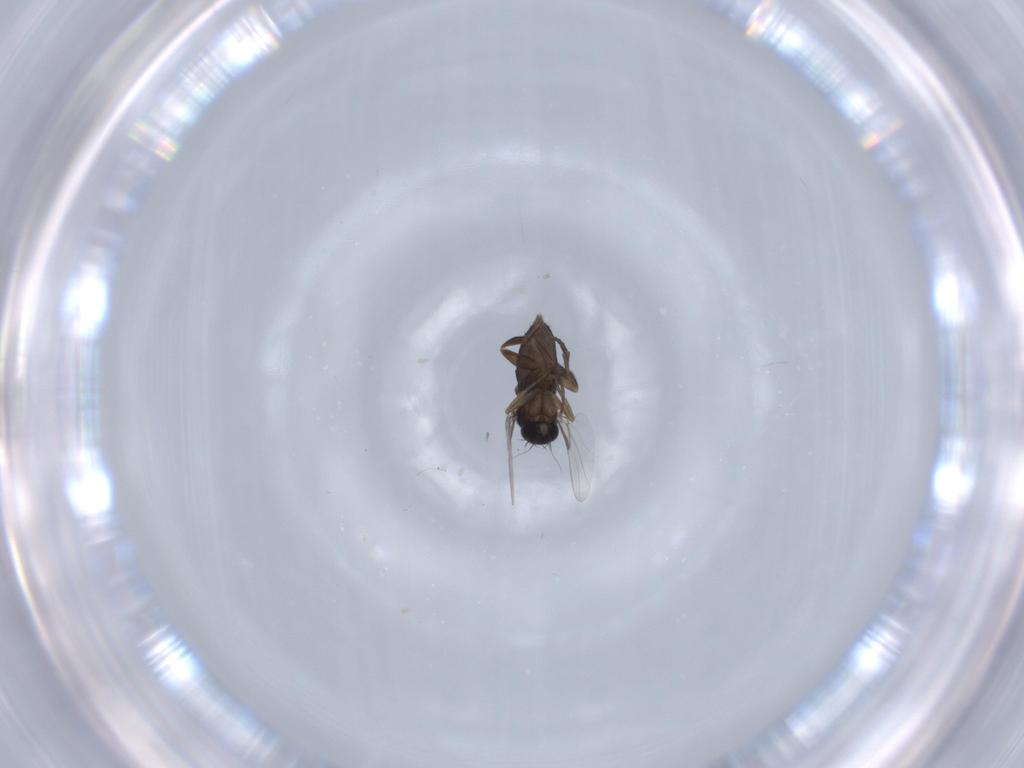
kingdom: Animalia
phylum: Arthropoda
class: Insecta
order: Diptera
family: Phoridae
